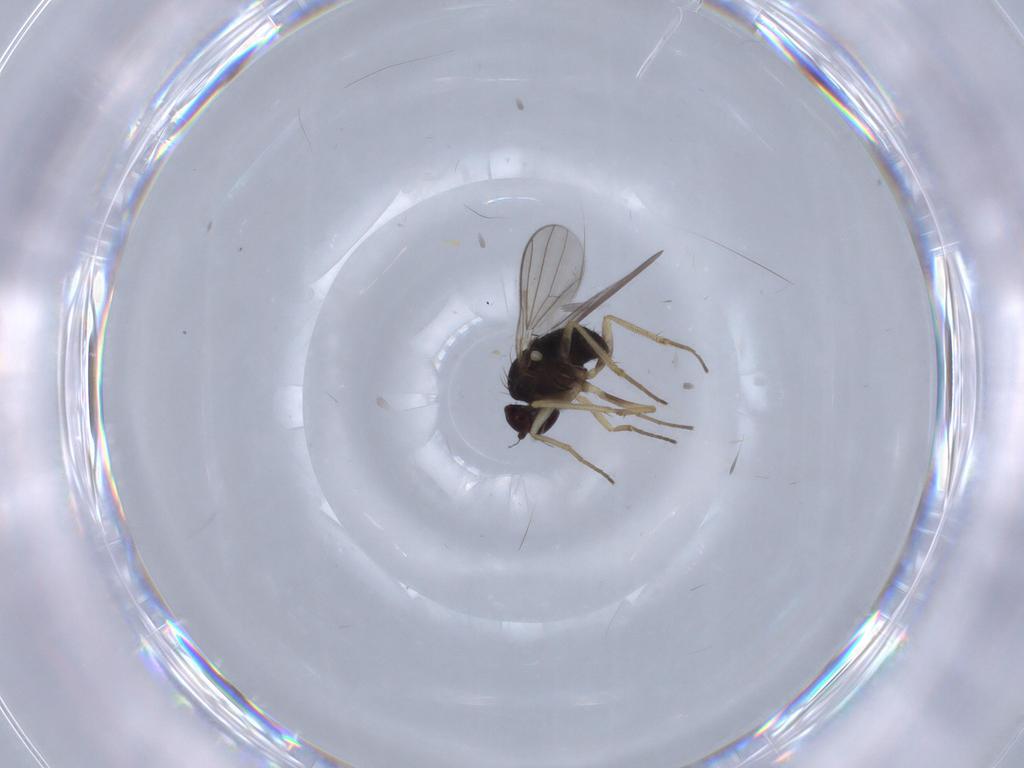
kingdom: Animalia
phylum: Arthropoda
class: Insecta
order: Diptera
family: Dolichopodidae
